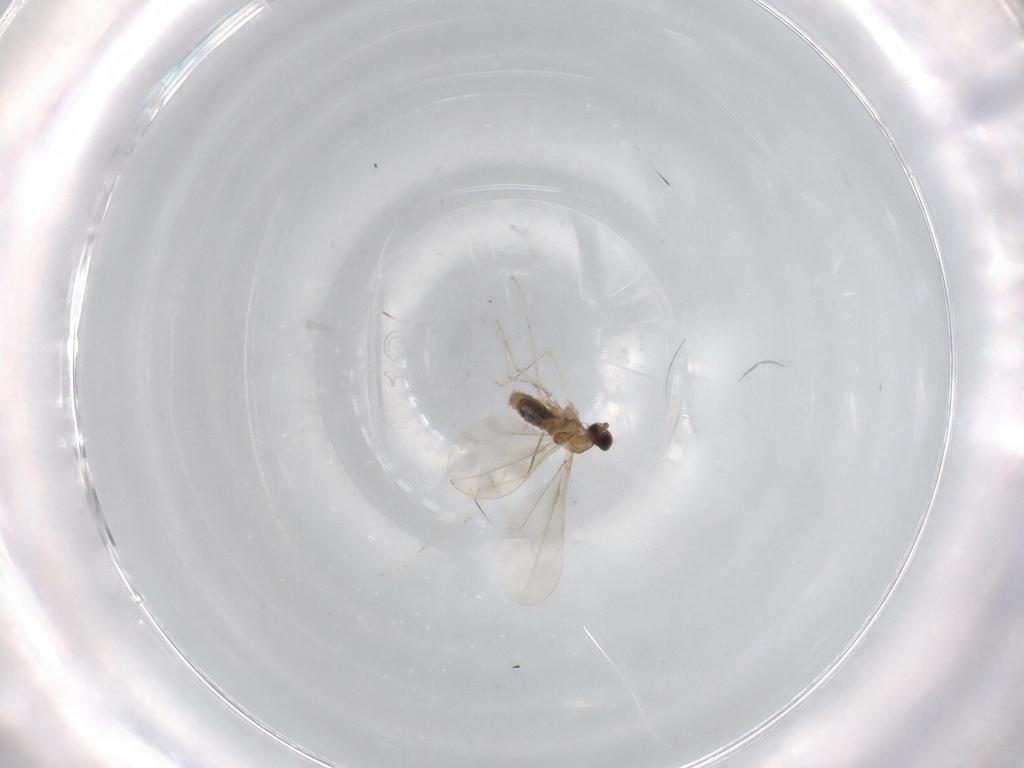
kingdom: Animalia
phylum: Arthropoda
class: Insecta
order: Diptera
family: Cecidomyiidae
